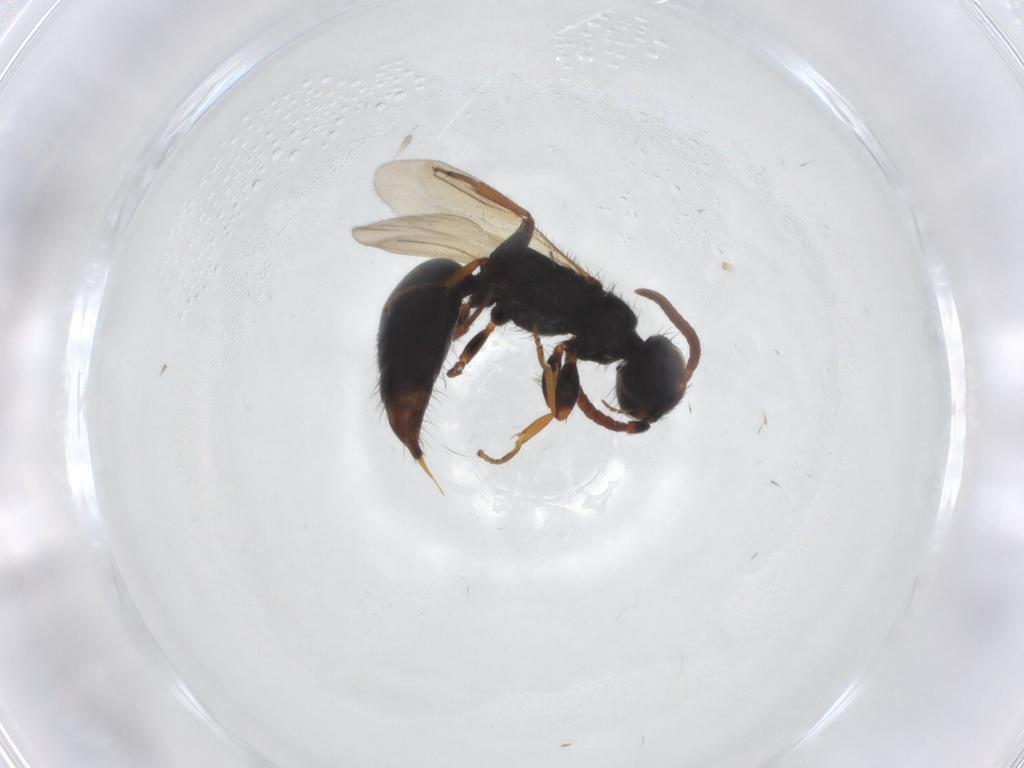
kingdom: Animalia
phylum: Arthropoda
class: Insecta
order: Hymenoptera
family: Bethylidae
